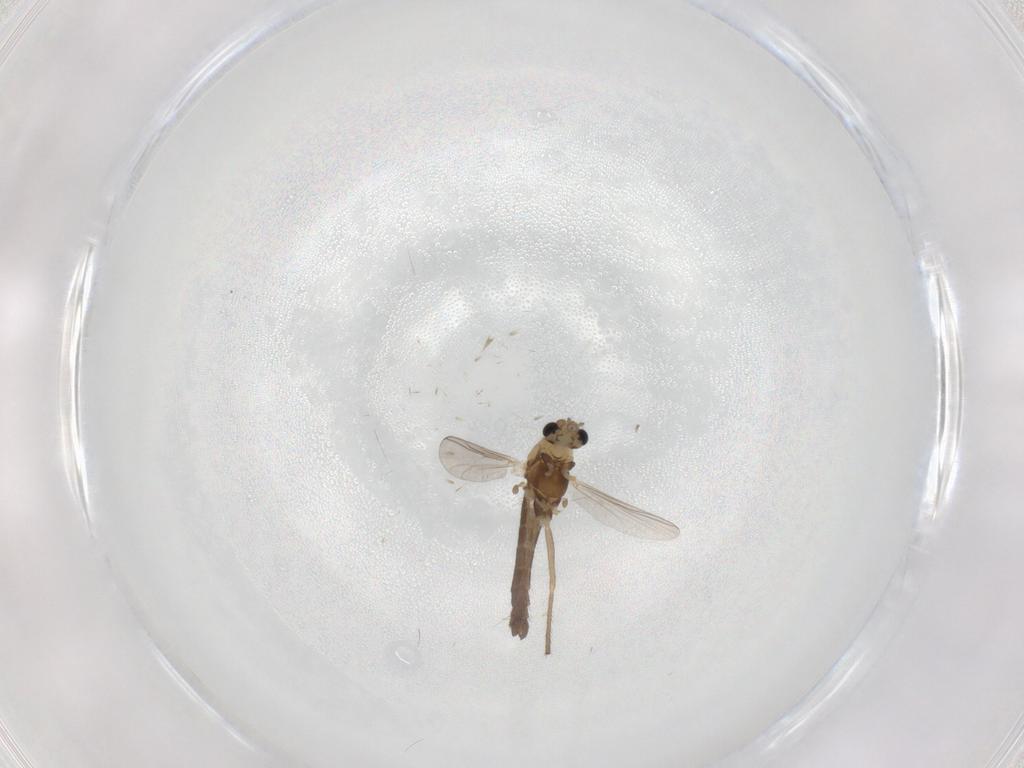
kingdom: Animalia
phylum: Arthropoda
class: Insecta
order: Diptera
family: Chironomidae
